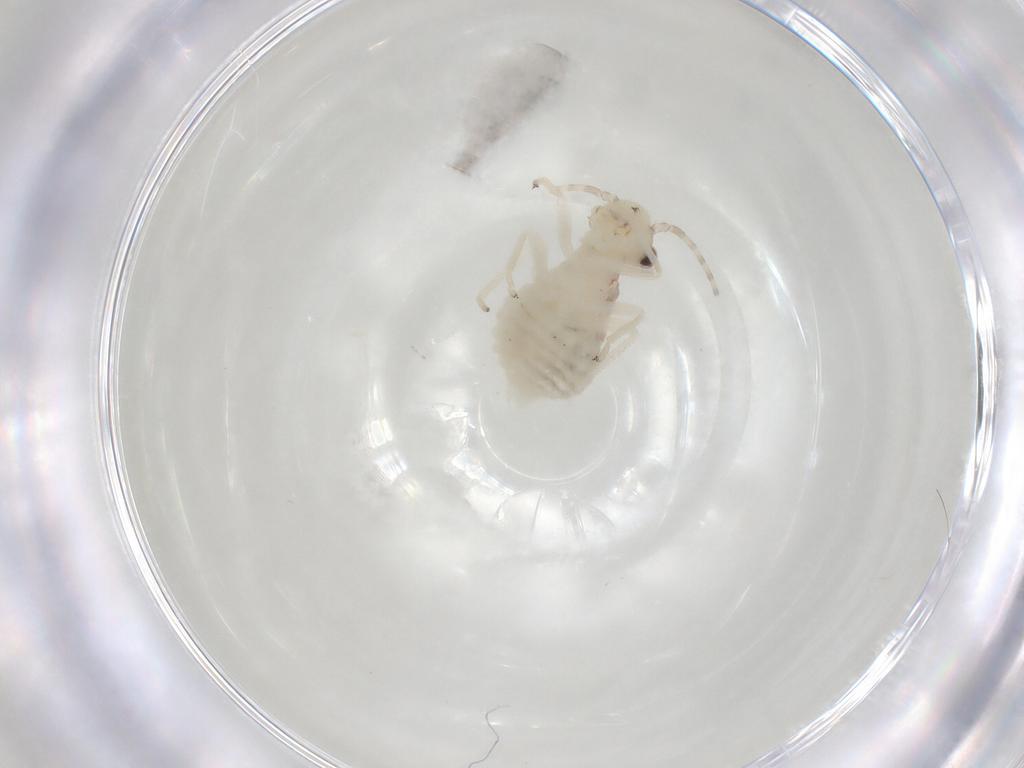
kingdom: Animalia
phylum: Arthropoda
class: Insecta
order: Psocodea
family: Amphipsocidae
